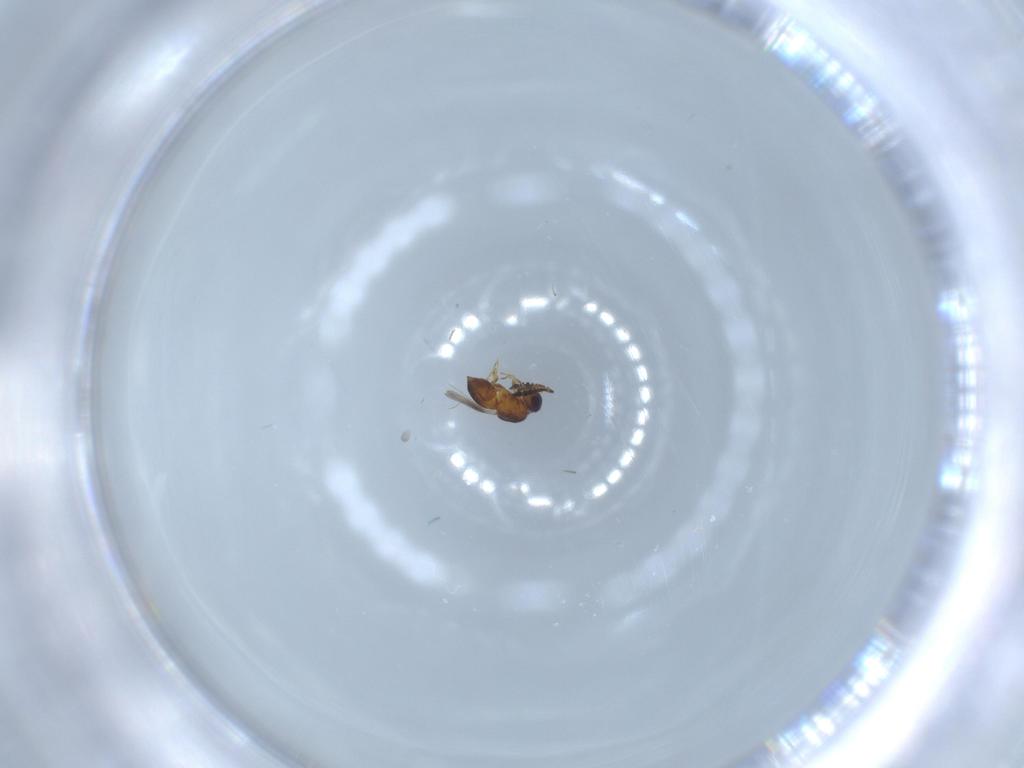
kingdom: Animalia
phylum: Arthropoda
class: Insecta
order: Hymenoptera
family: Ceraphronidae
